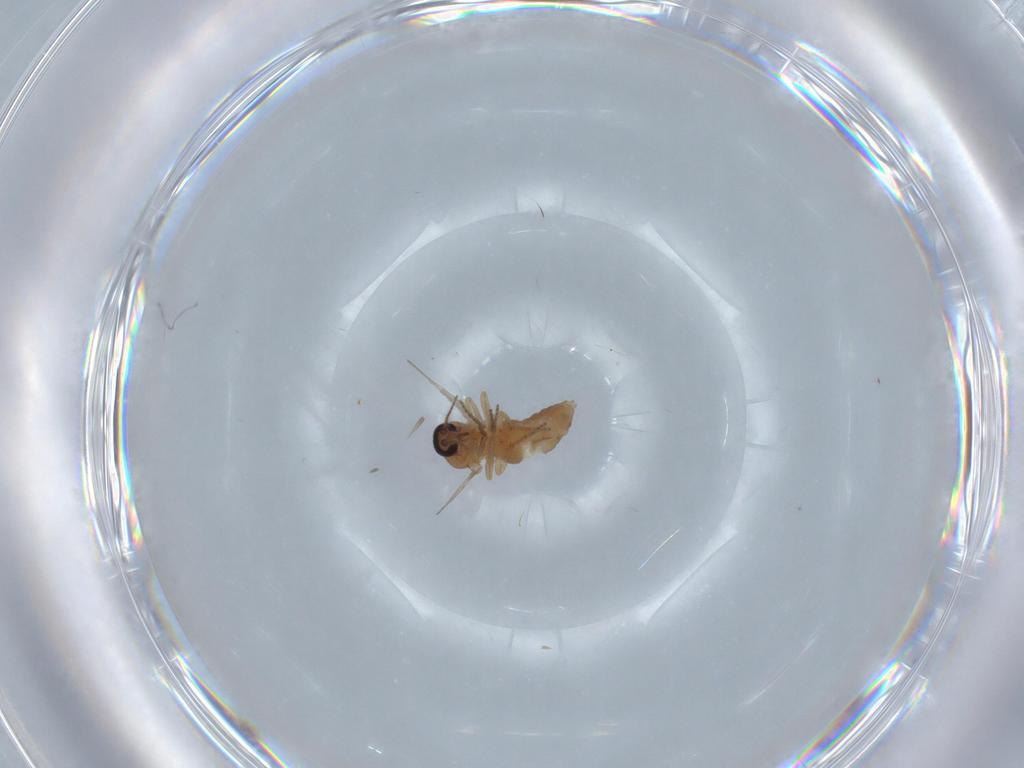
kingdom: Animalia
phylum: Arthropoda
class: Insecta
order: Diptera
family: Ceratopogonidae
